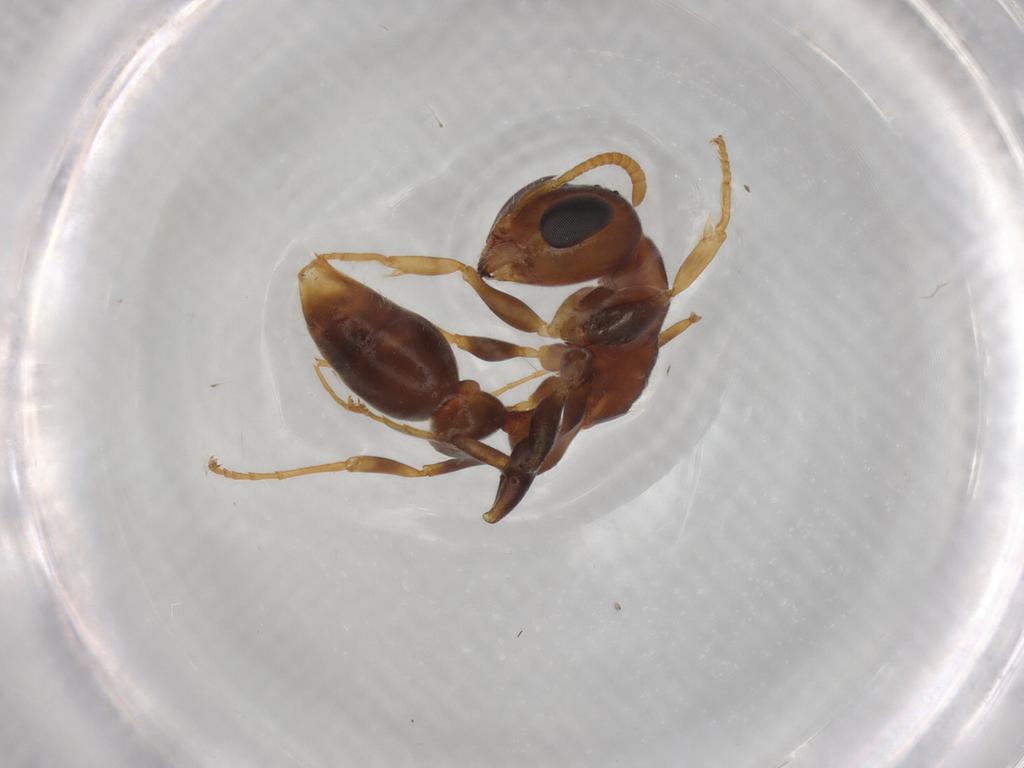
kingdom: Animalia
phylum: Arthropoda
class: Insecta
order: Hymenoptera
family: Formicidae
